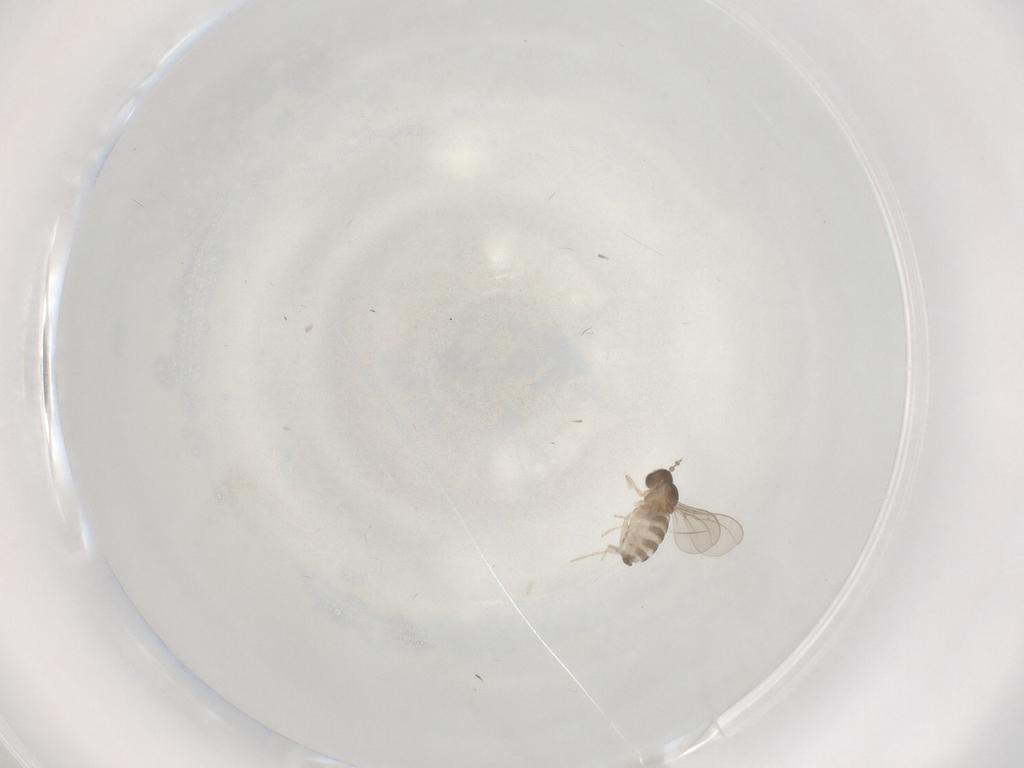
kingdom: Animalia
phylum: Arthropoda
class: Insecta
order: Diptera
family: Cecidomyiidae
